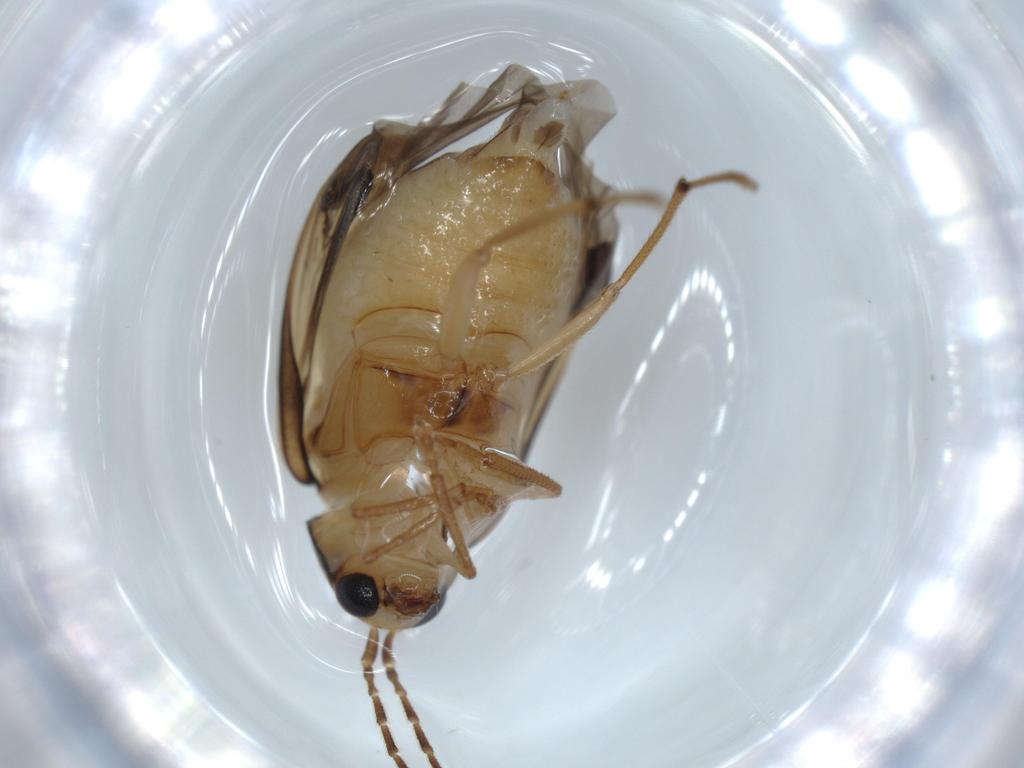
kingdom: Animalia
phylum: Arthropoda
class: Insecta
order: Coleoptera
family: Chrysomelidae
